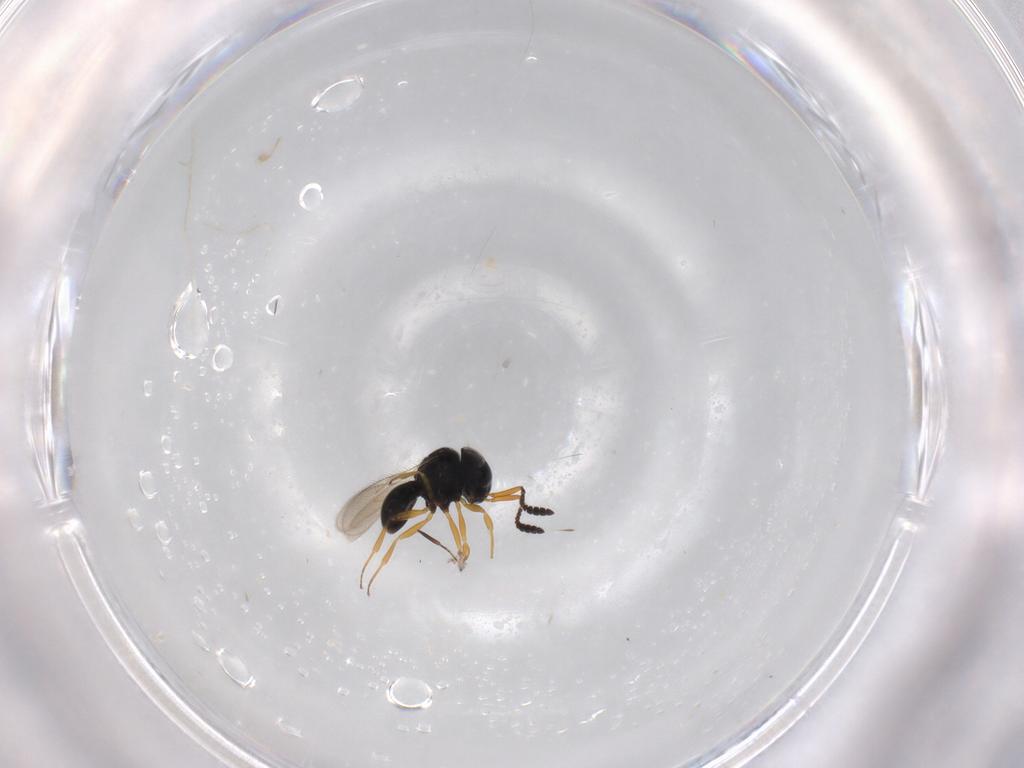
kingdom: Animalia
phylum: Arthropoda
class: Insecta
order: Hymenoptera
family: Scelionidae
